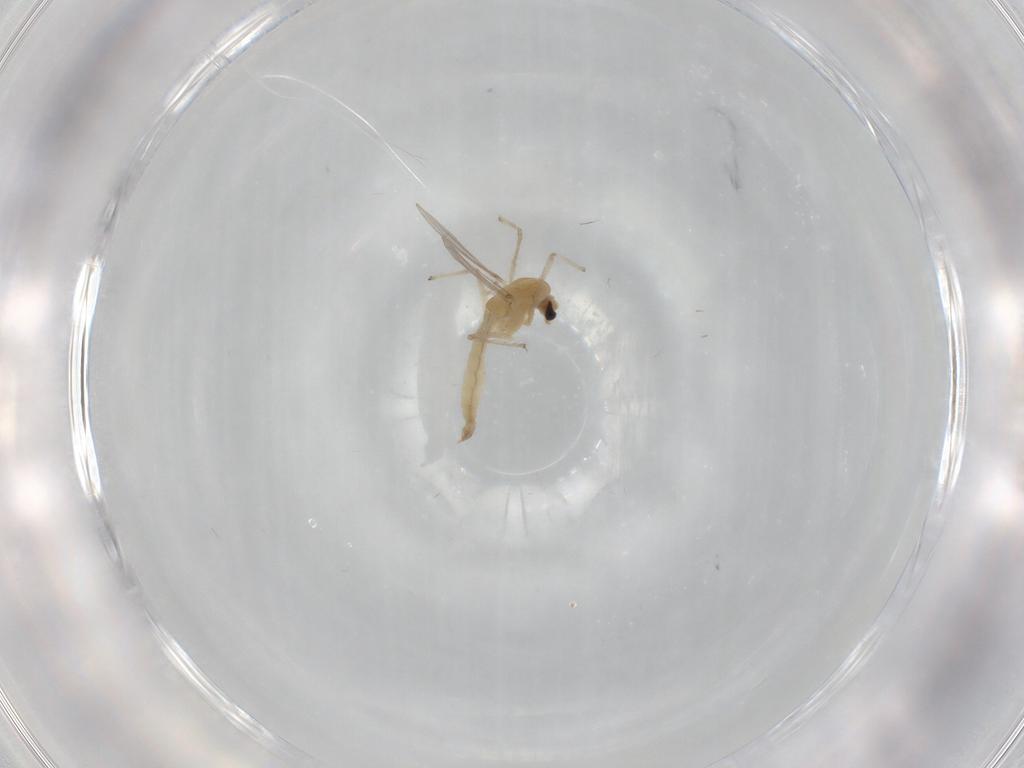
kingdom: Animalia
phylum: Arthropoda
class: Insecta
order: Diptera
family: Chironomidae
